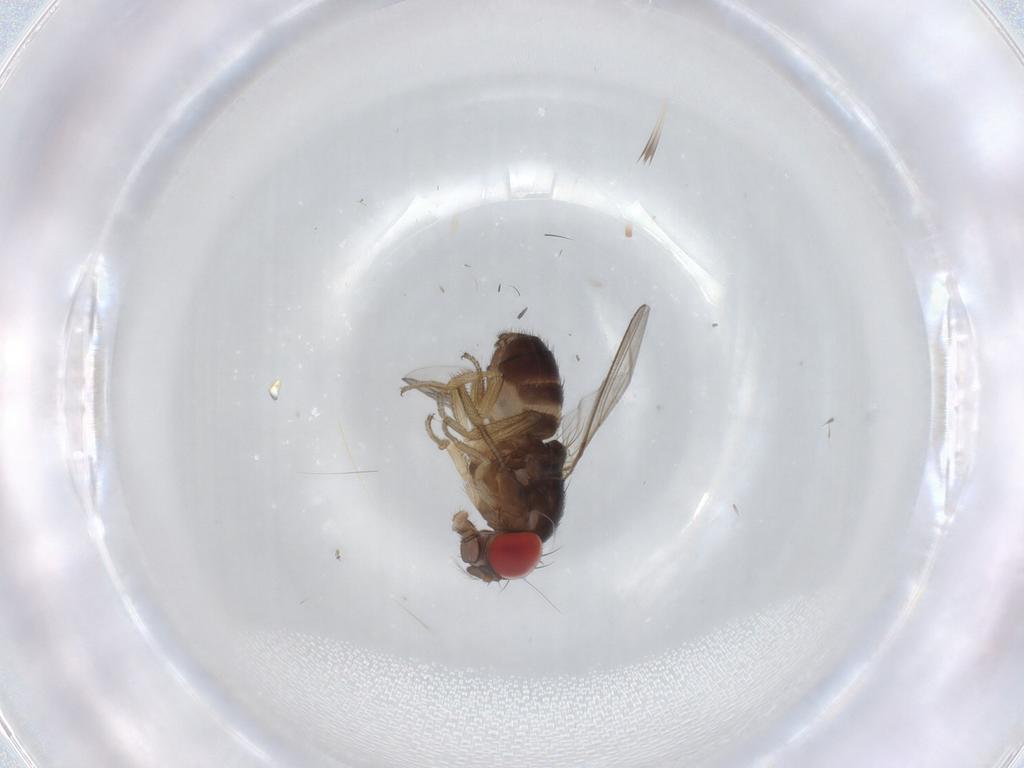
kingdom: Animalia
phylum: Arthropoda
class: Insecta
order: Diptera
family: Drosophilidae
